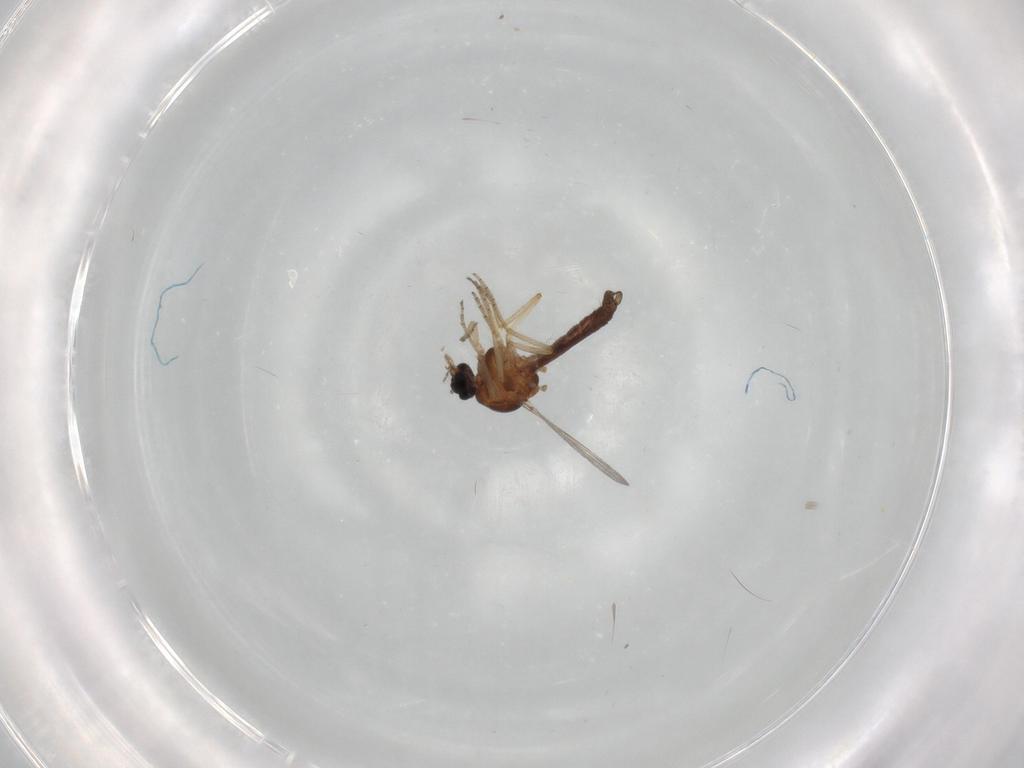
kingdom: Animalia
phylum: Arthropoda
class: Insecta
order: Diptera
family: Ceratopogonidae
